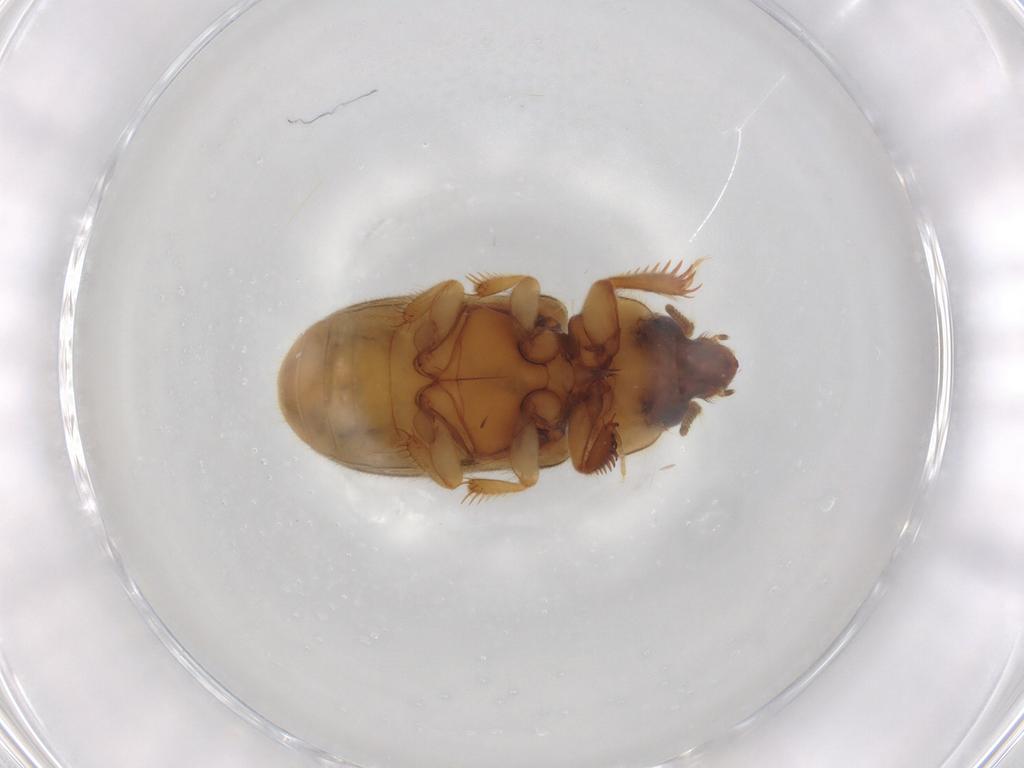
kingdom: Animalia
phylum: Arthropoda
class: Insecta
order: Coleoptera
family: Heteroceridae
